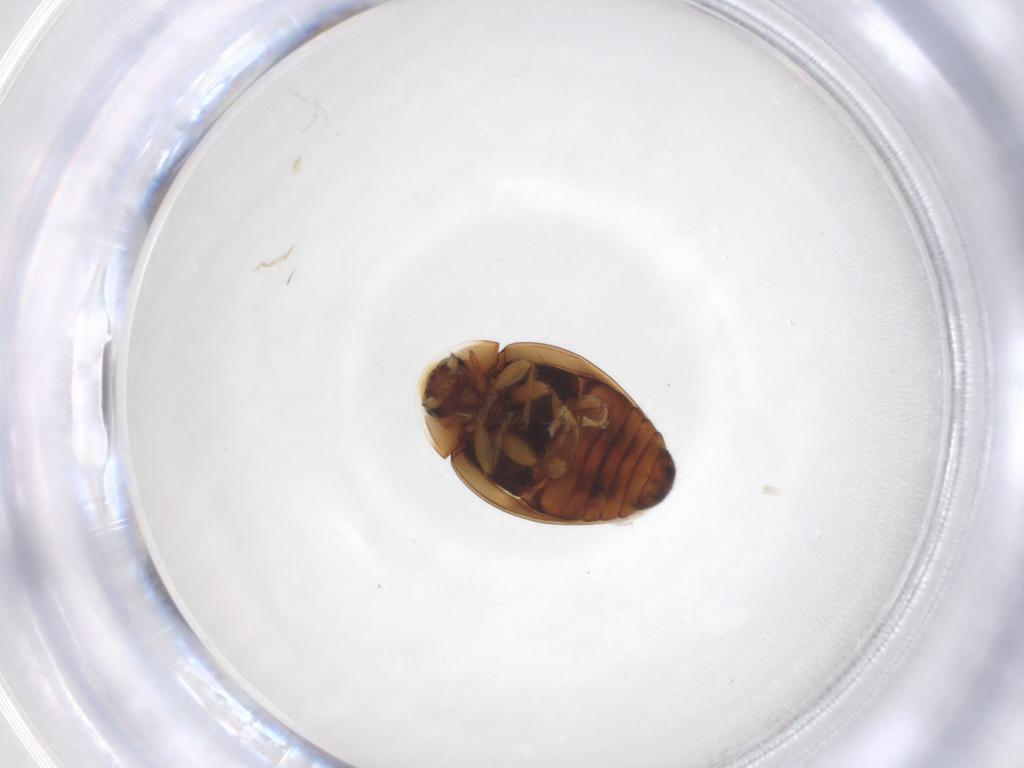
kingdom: Animalia
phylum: Arthropoda
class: Insecta
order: Coleoptera
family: Coccinellidae
